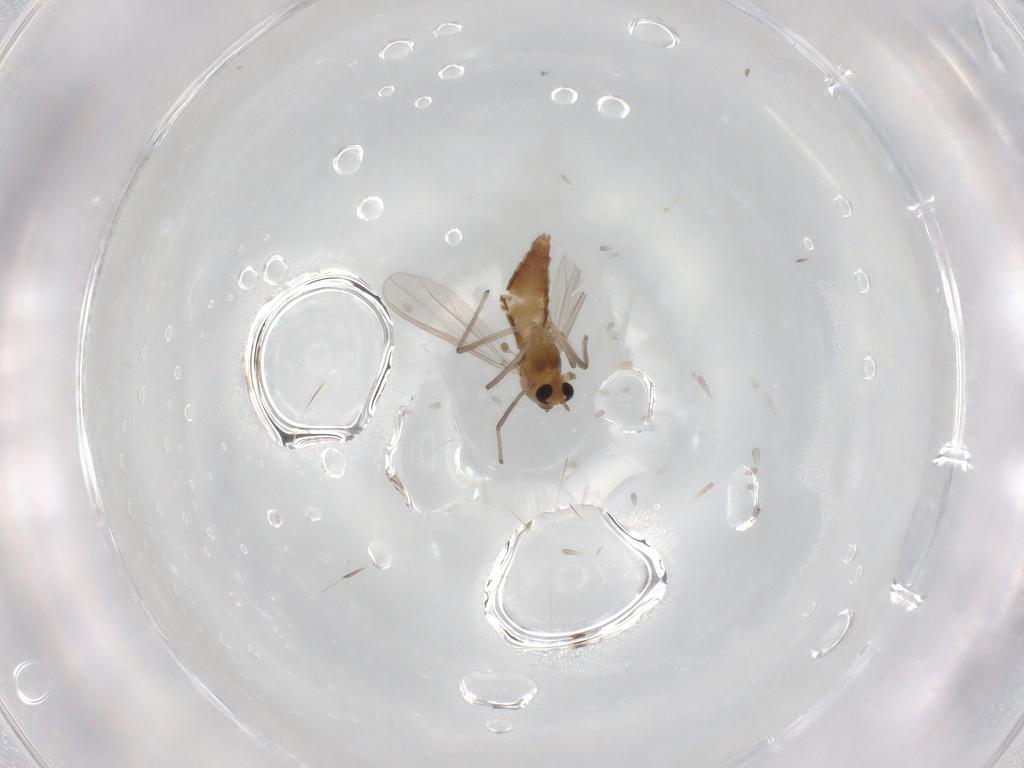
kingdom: Animalia
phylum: Arthropoda
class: Insecta
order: Diptera
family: Chironomidae
